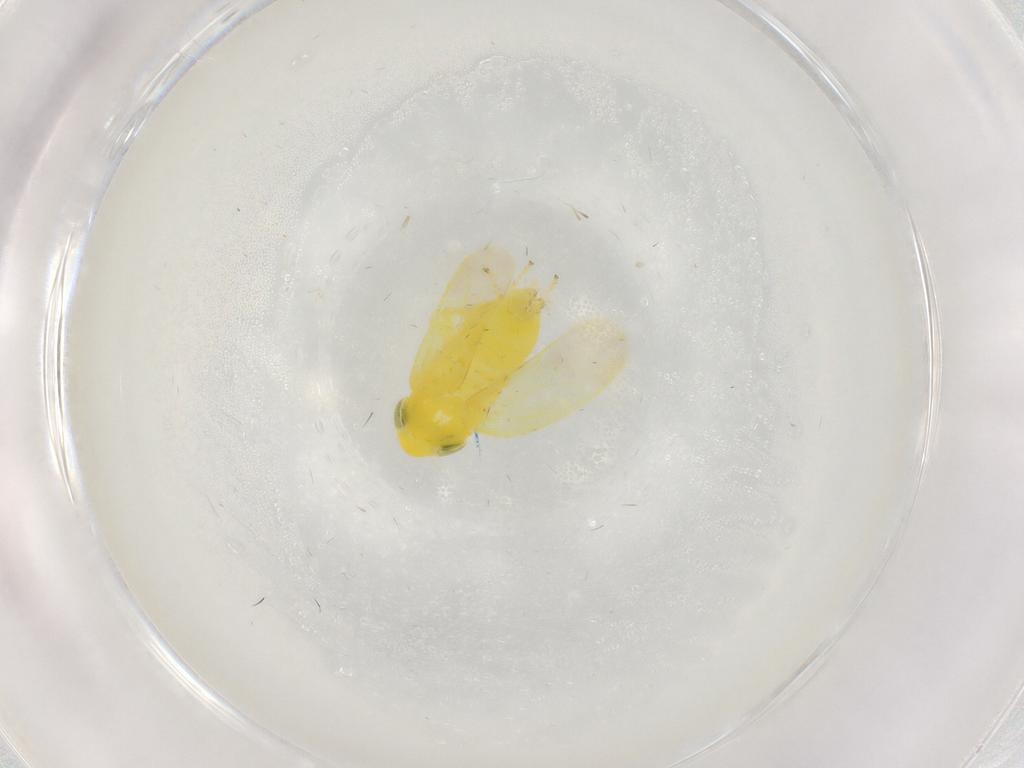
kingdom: Animalia
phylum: Arthropoda
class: Insecta
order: Hemiptera
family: Cicadellidae
